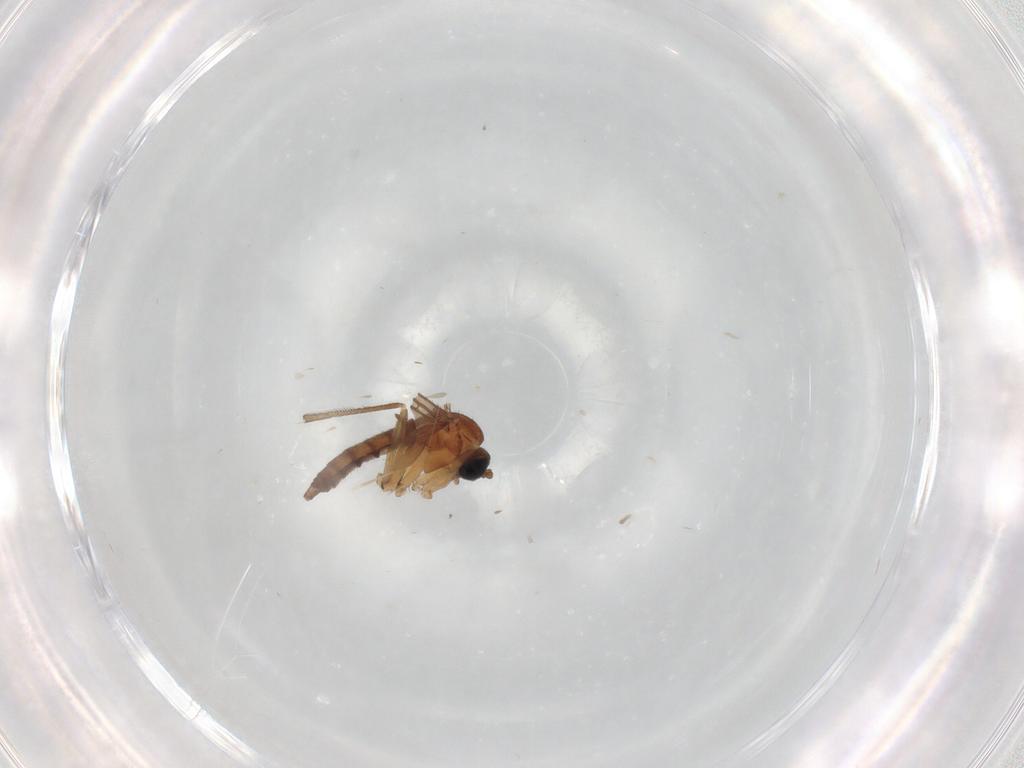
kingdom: Animalia
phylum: Arthropoda
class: Insecta
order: Diptera
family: Sciaridae
